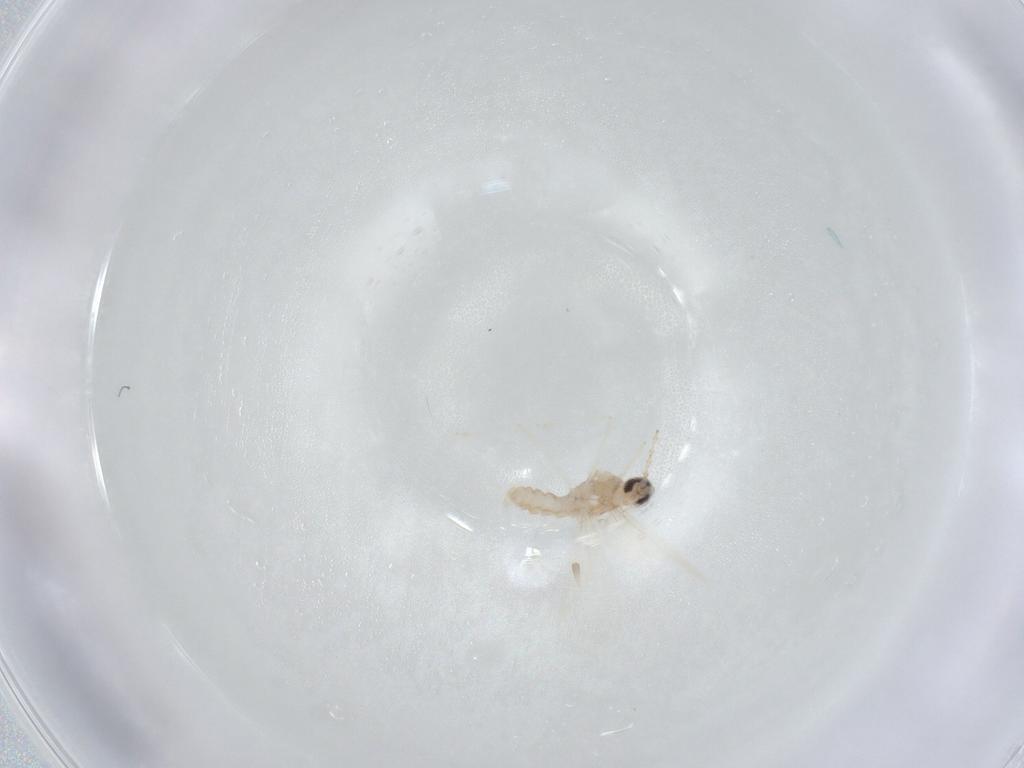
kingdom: Animalia
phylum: Arthropoda
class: Insecta
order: Diptera
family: Cecidomyiidae
